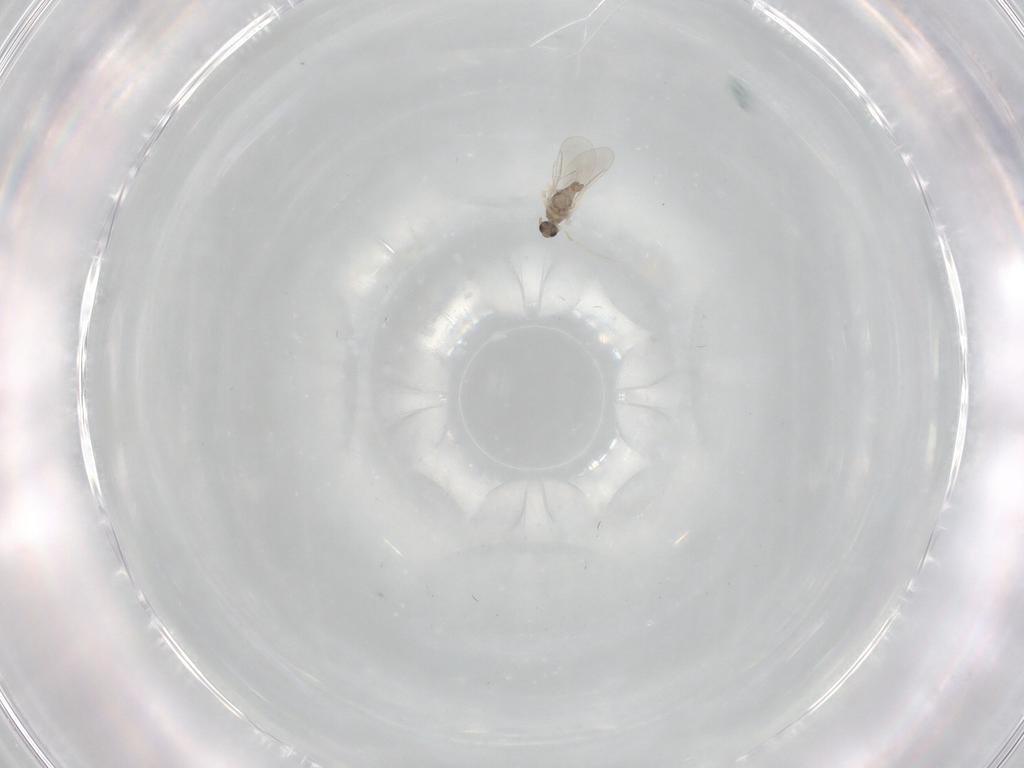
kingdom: Animalia
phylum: Arthropoda
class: Insecta
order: Diptera
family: Cecidomyiidae
